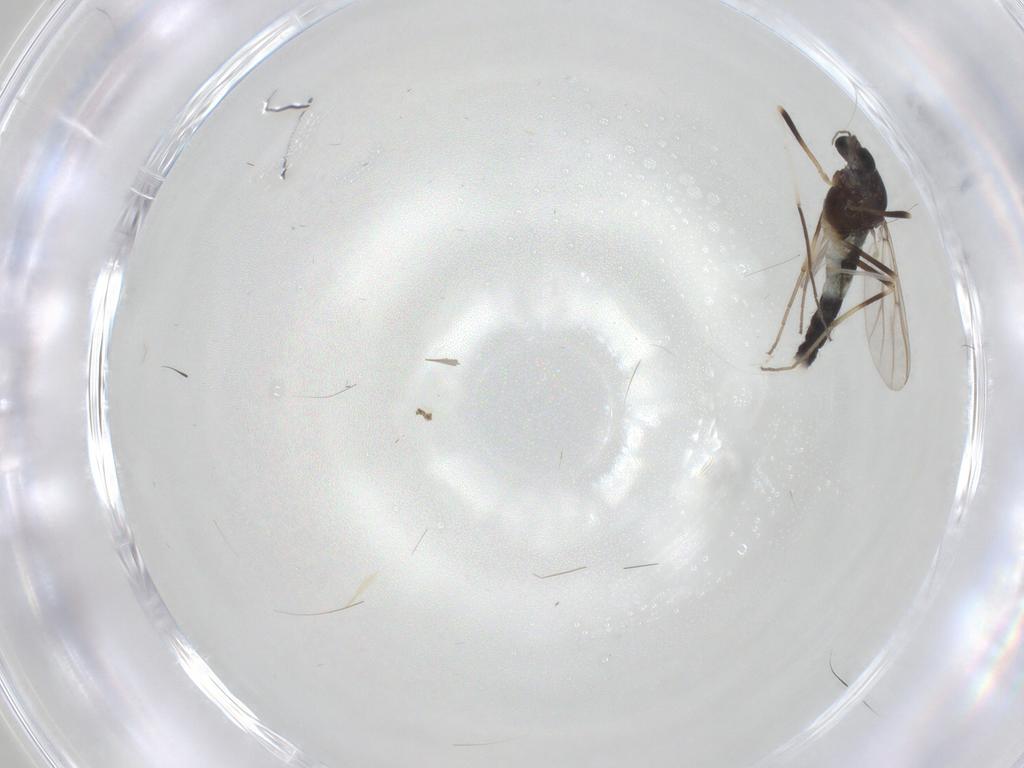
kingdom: Animalia
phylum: Arthropoda
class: Insecta
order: Diptera
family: Chironomidae
